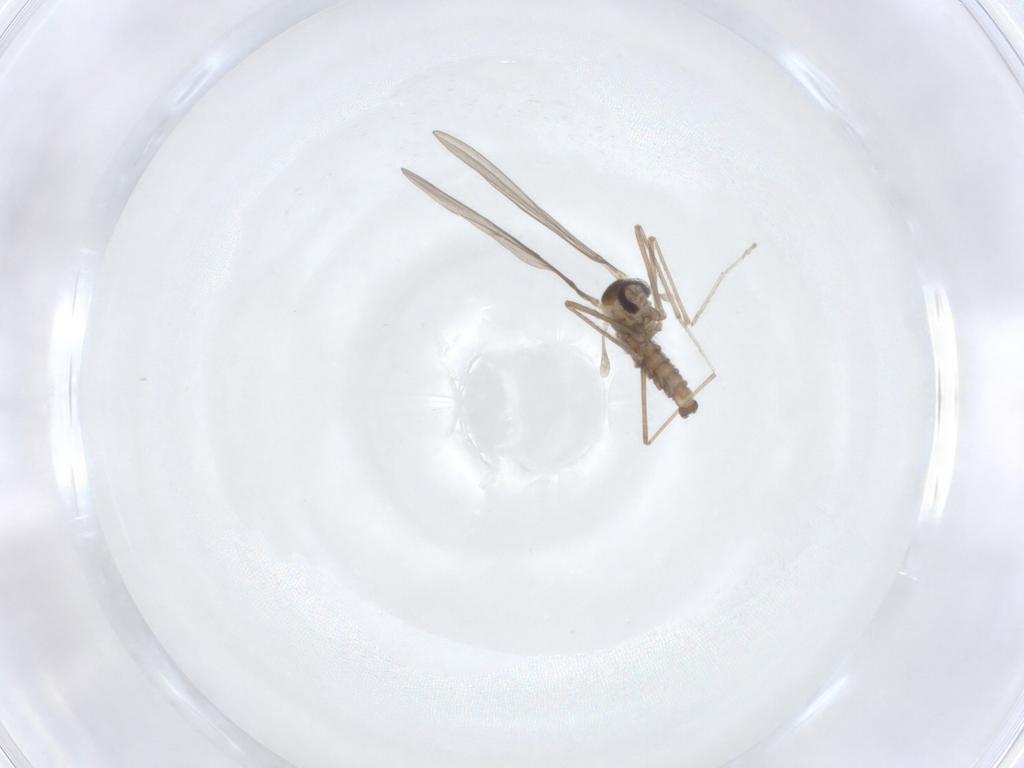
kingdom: Animalia
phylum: Arthropoda
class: Insecta
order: Diptera
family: Cecidomyiidae
